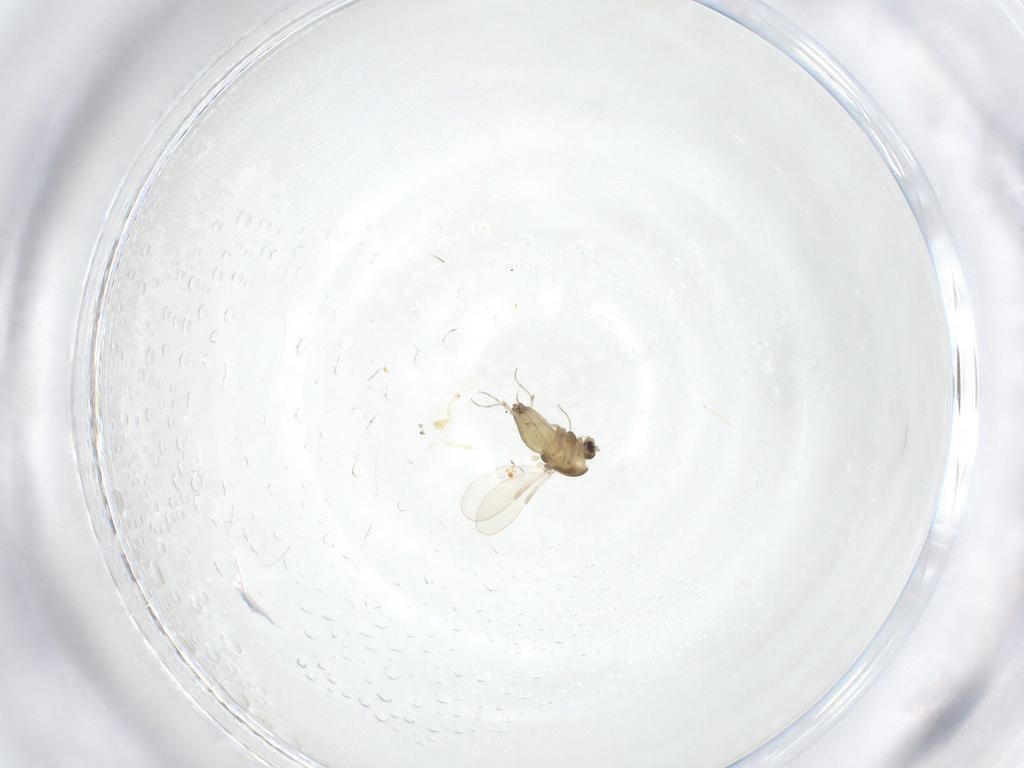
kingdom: Animalia
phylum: Arthropoda
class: Insecta
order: Diptera
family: Chironomidae
